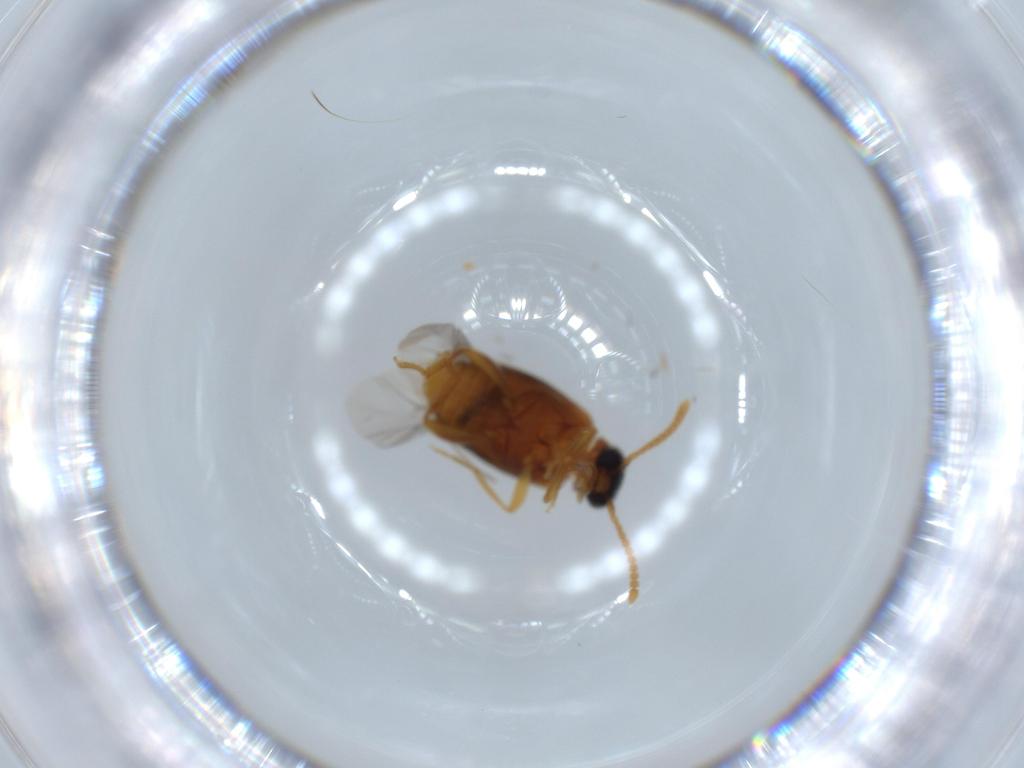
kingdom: Animalia
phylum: Arthropoda
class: Insecta
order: Coleoptera
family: Aderidae
